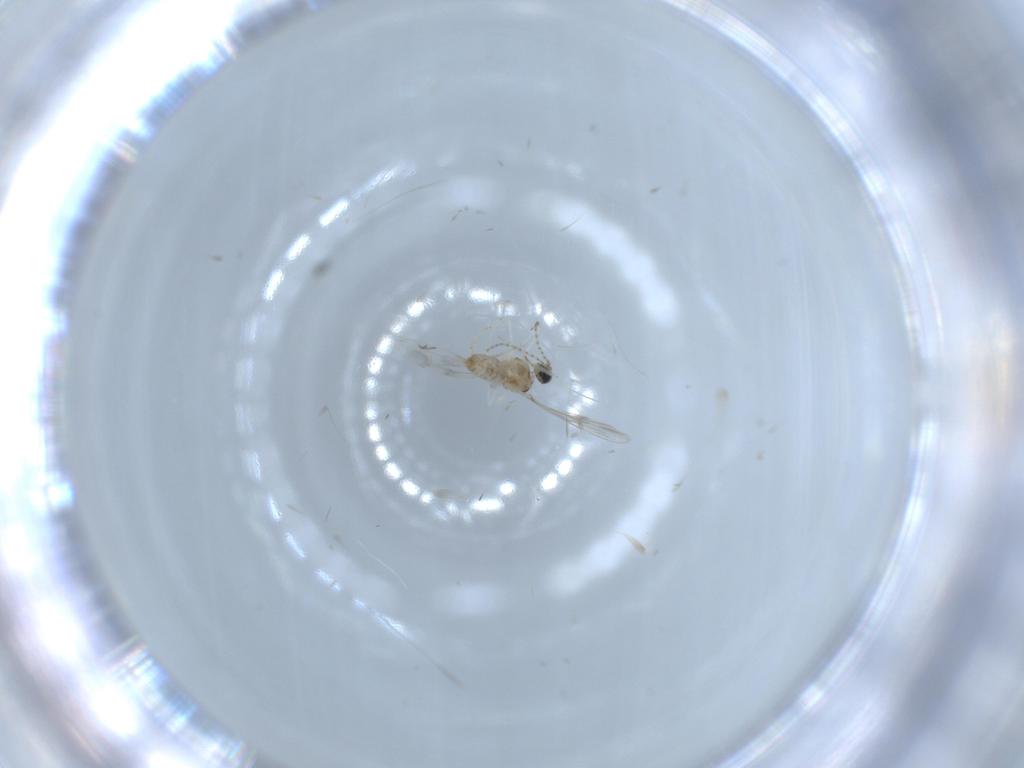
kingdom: Animalia
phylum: Arthropoda
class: Insecta
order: Diptera
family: Cecidomyiidae
